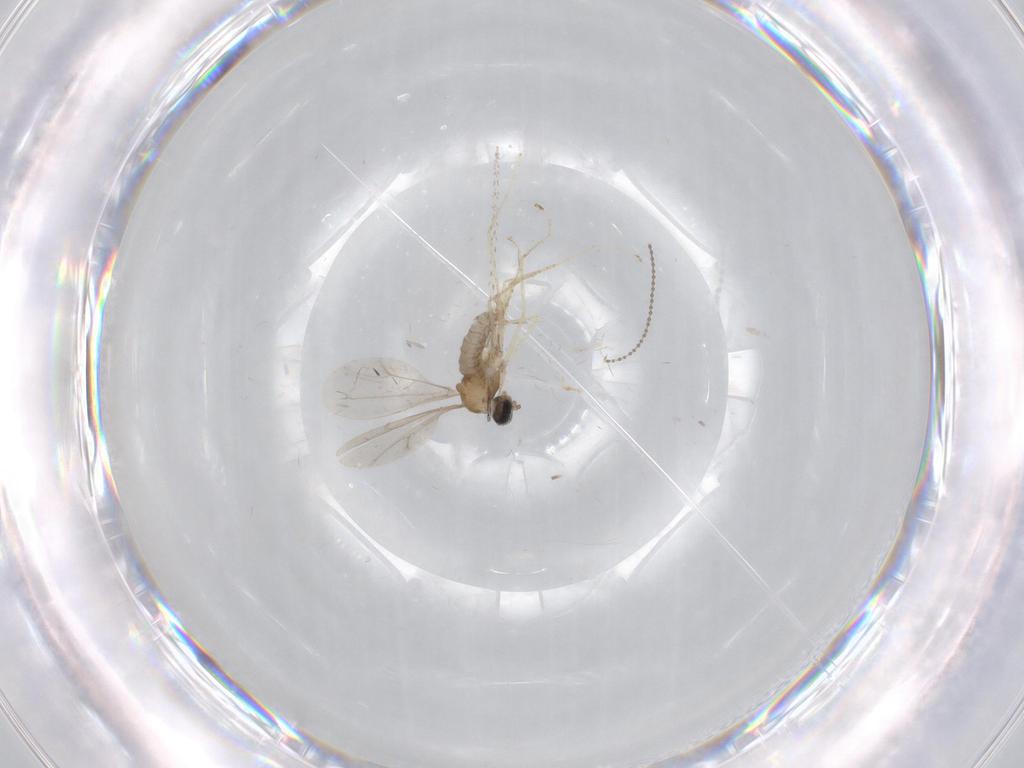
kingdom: Animalia
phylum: Arthropoda
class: Insecta
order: Diptera
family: Cecidomyiidae
